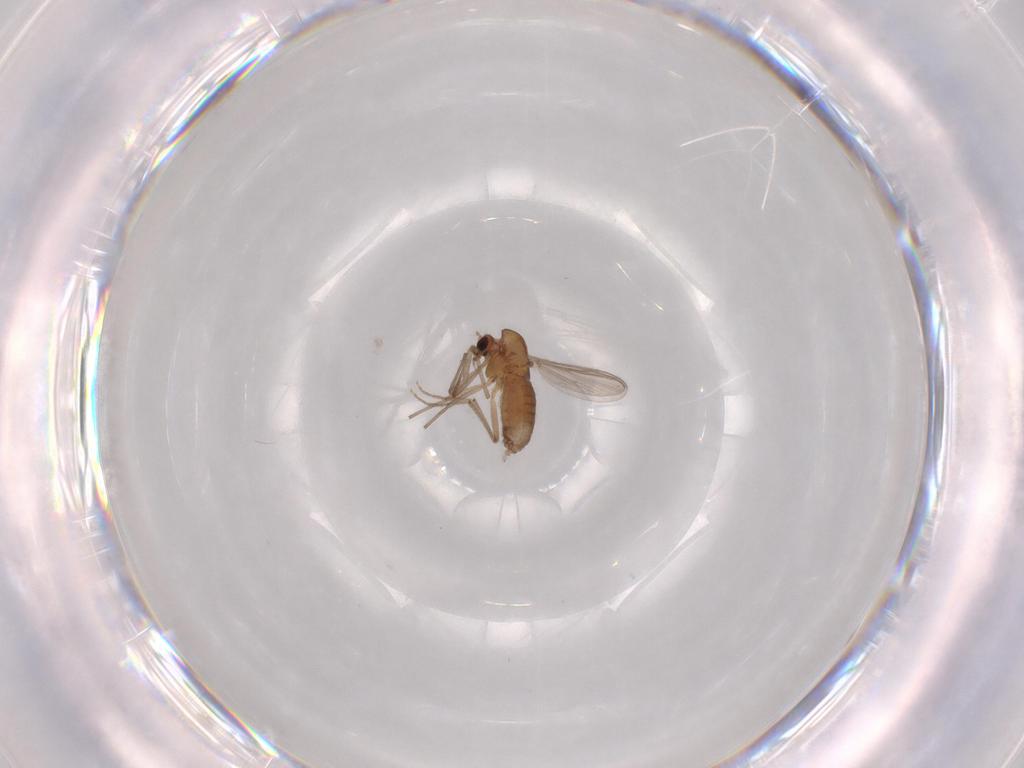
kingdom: Animalia
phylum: Arthropoda
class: Insecta
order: Diptera
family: Chironomidae
